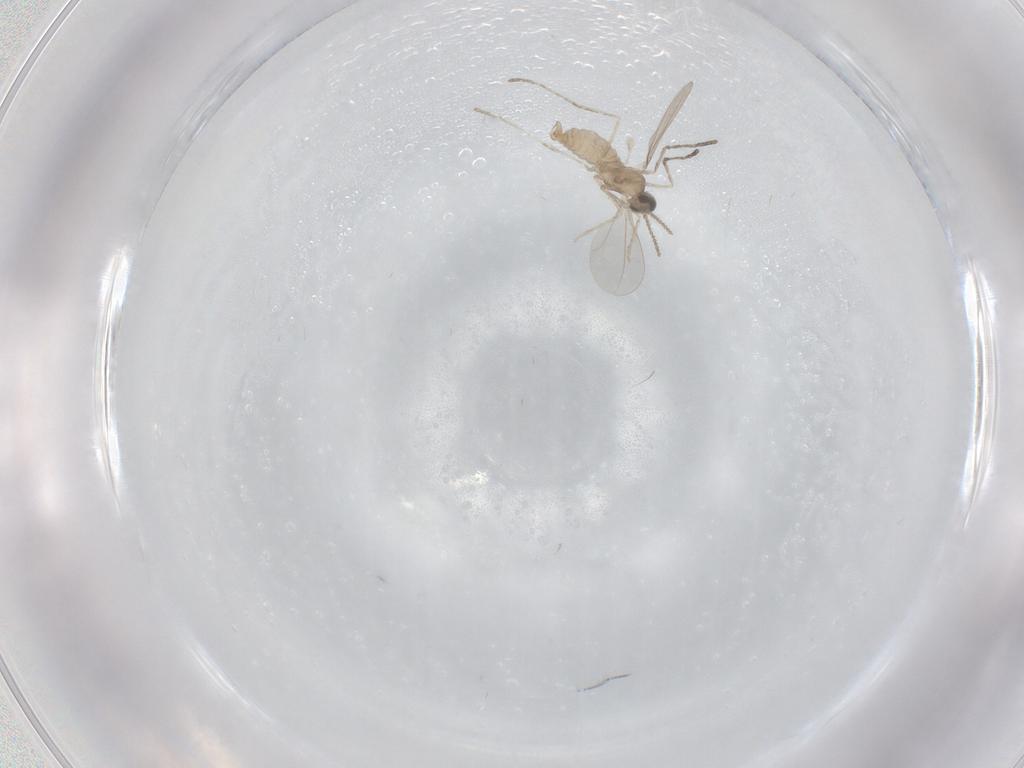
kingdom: Animalia
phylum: Arthropoda
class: Insecta
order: Diptera
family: Cecidomyiidae
